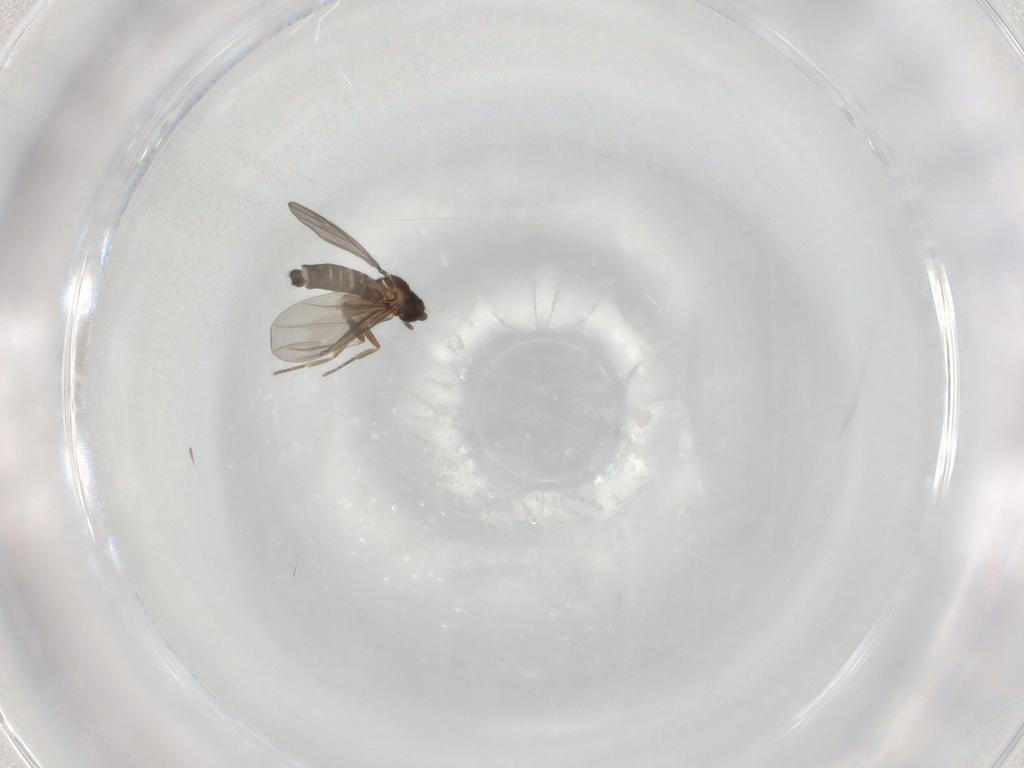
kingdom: Animalia
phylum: Arthropoda
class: Insecta
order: Diptera
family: Phoridae
